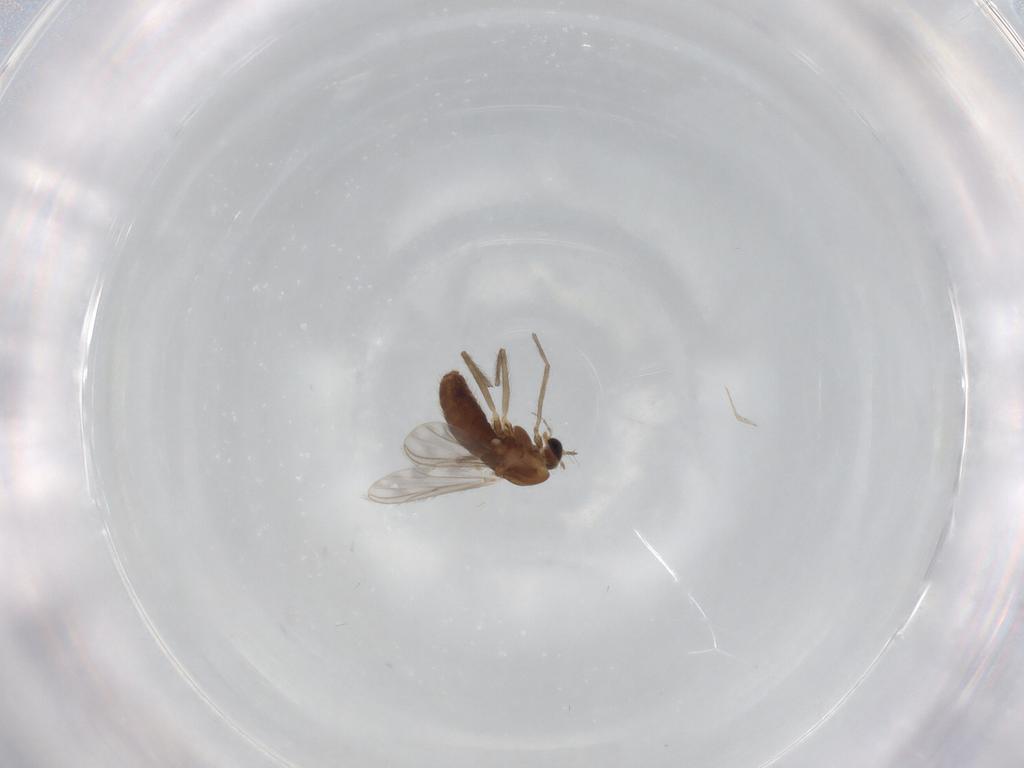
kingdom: Animalia
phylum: Arthropoda
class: Insecta
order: Diptera
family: Chironomidae
